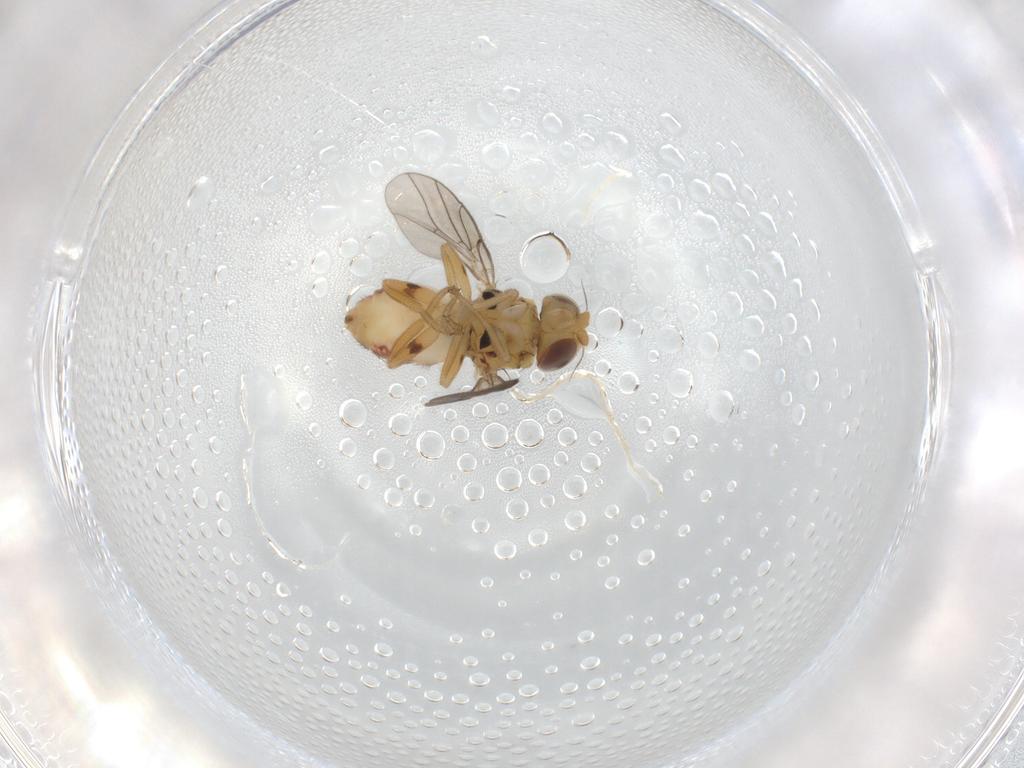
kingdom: Animalia
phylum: Arthropoda
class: Insecta
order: Diptera
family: Chloropidae
